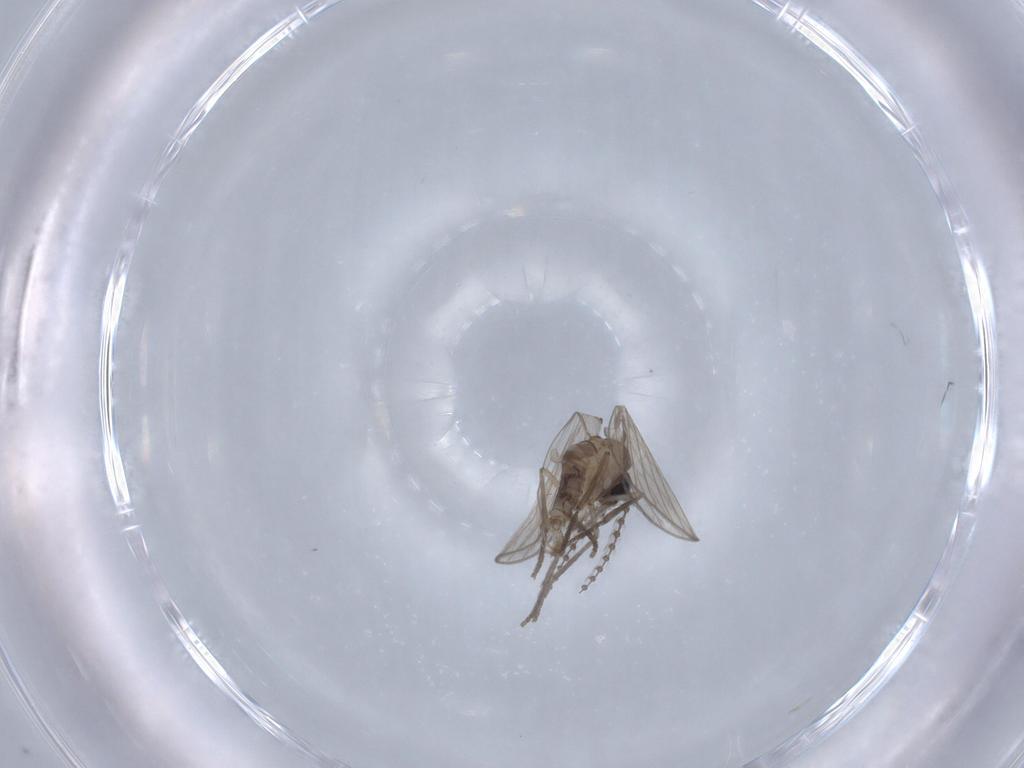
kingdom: Animalia
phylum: Arthropoda
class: Insecta
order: Diptera
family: Psychodidae
